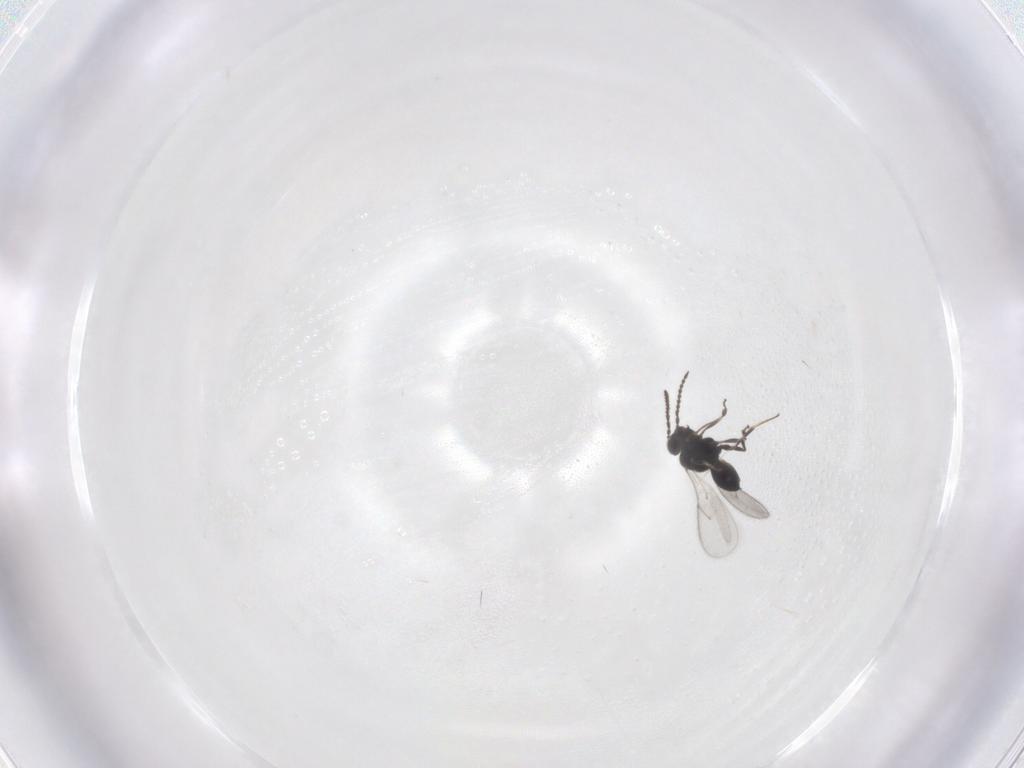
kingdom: Animalia
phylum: Arthropoda
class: Insecta
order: Hymenoptera
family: Scelionidae
